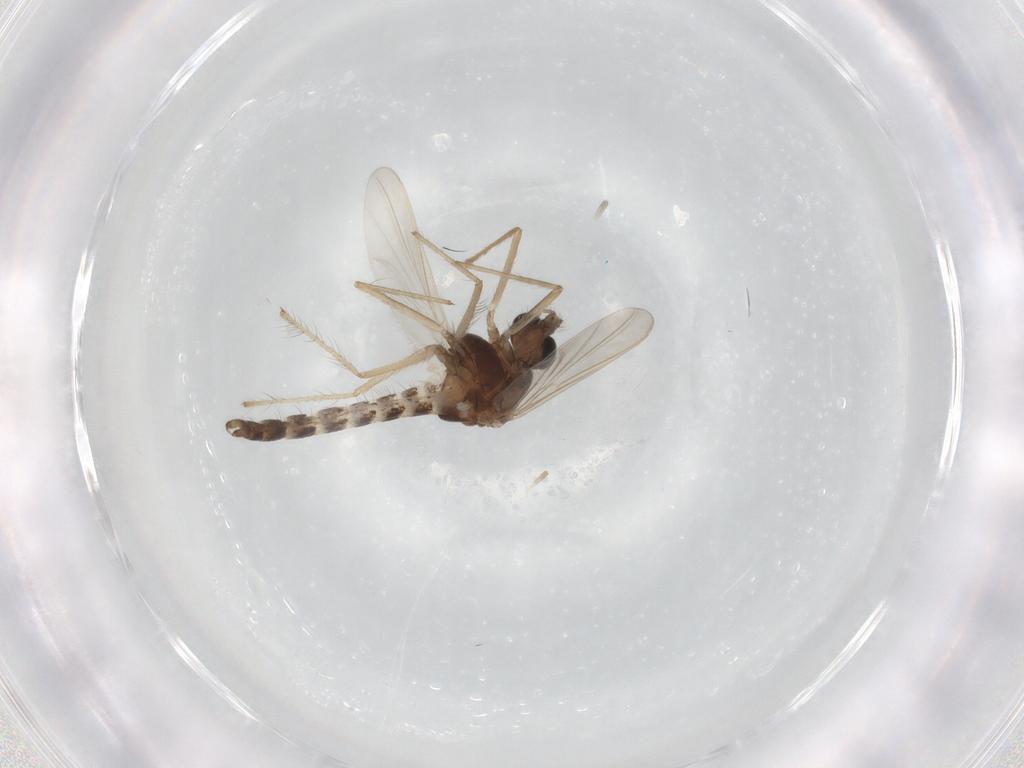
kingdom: Animalia
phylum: Arthropoda
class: Insecta
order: Diptera
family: Chironomidae
